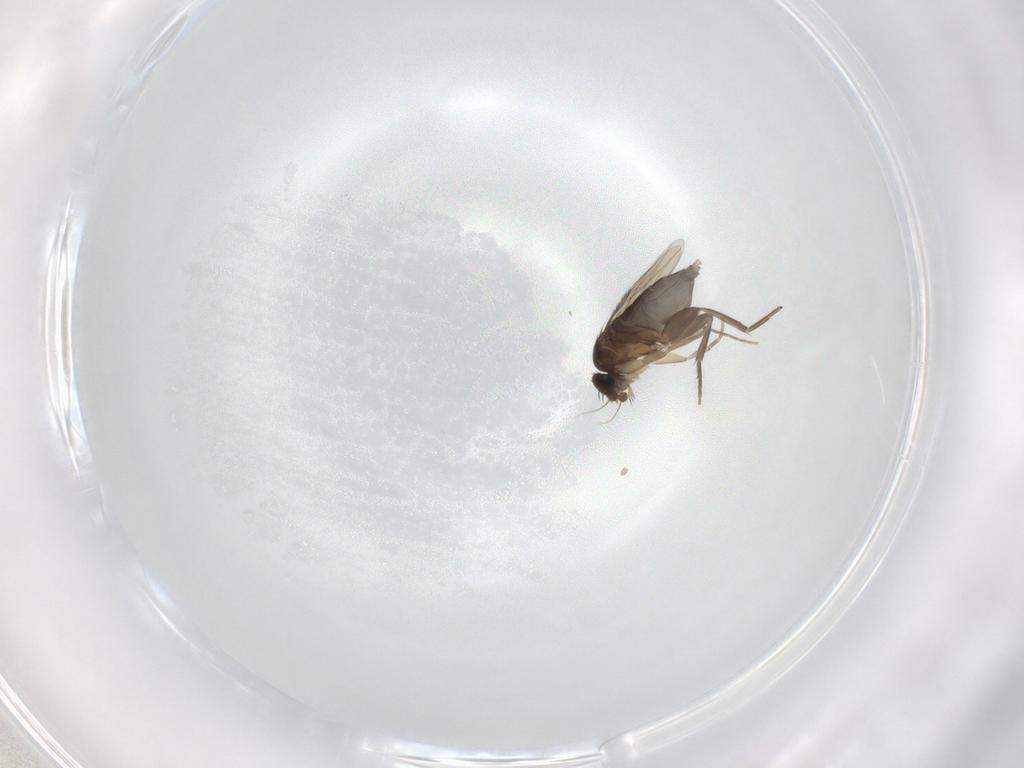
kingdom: Animalia
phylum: Arthropoda
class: Insecta
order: Diptera
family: Phoridae
